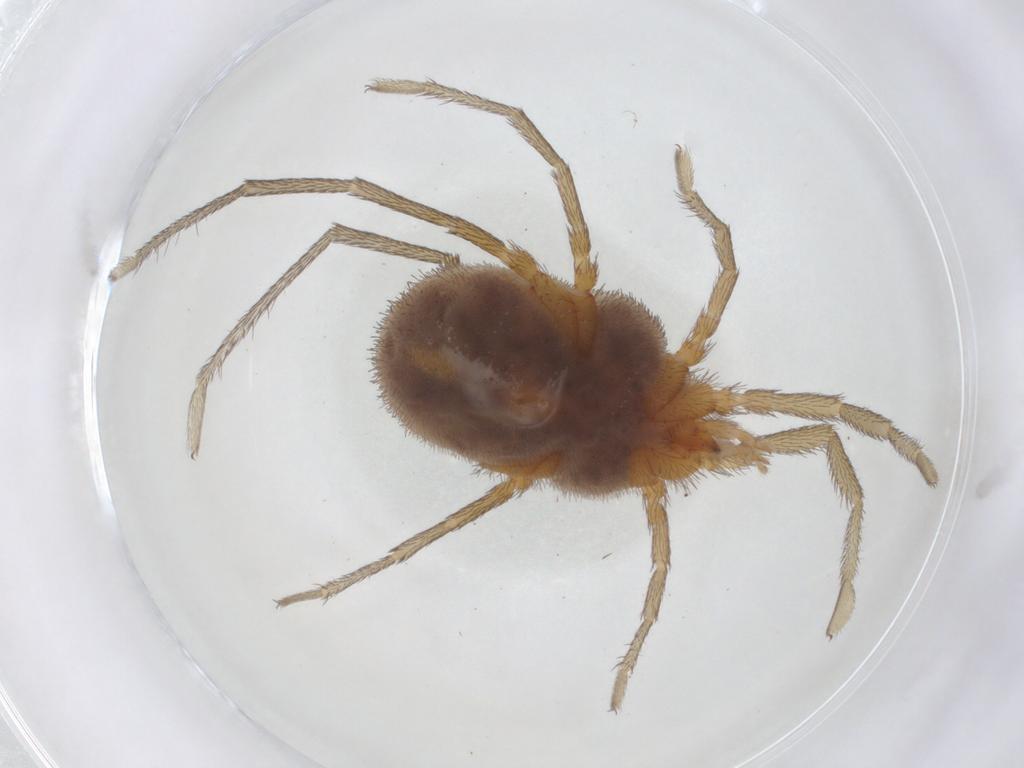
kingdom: Animalia
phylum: Arthropoda
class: Arachnida
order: Trombidiformes
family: Erythraeidae
